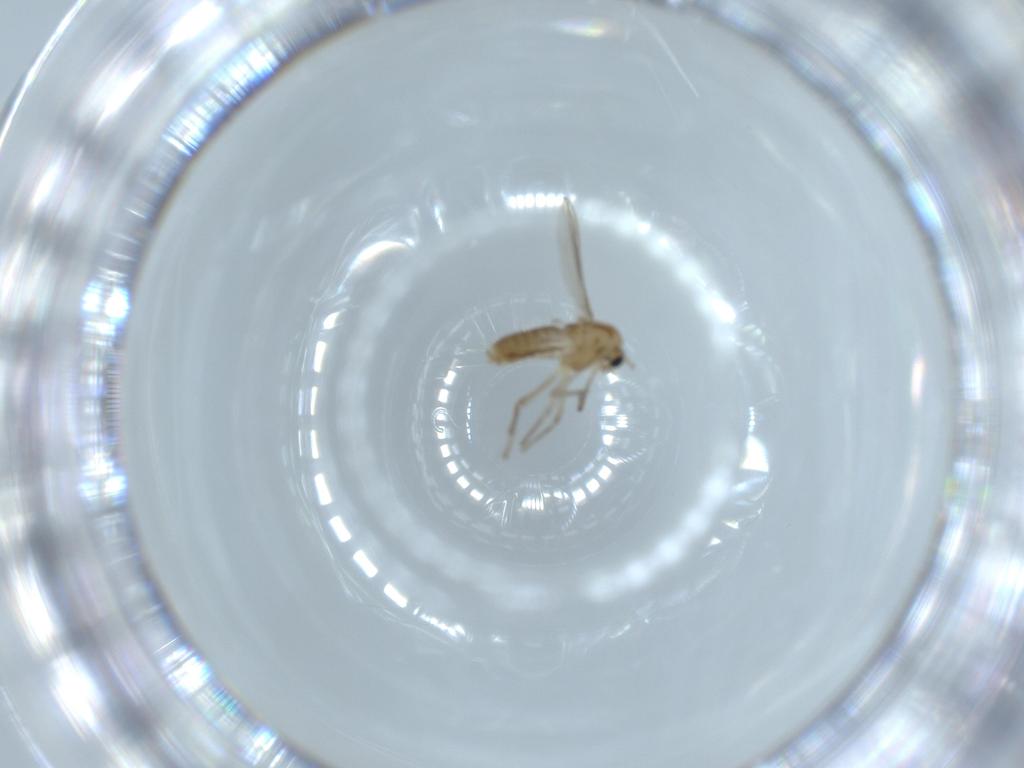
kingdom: Animalia
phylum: Arthropoda
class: Insecta
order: Diptera
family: Chironomidae
